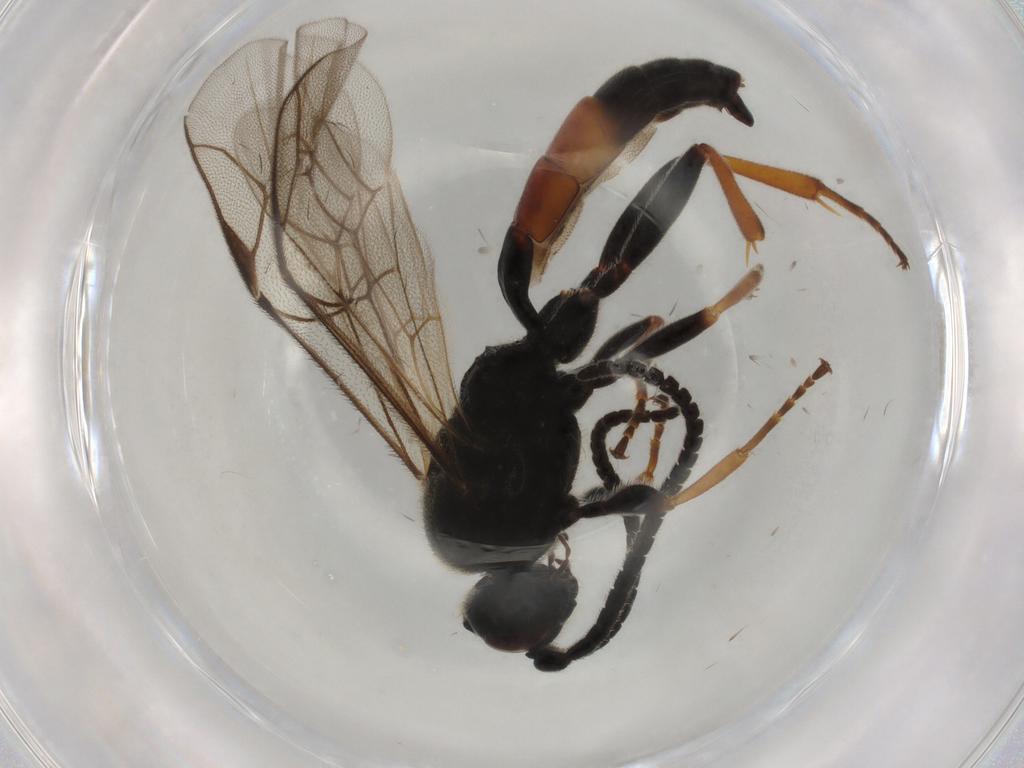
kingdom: Animalia
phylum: Arthropoda
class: Insecta
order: Hymenoptera
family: Ichneumonidae
